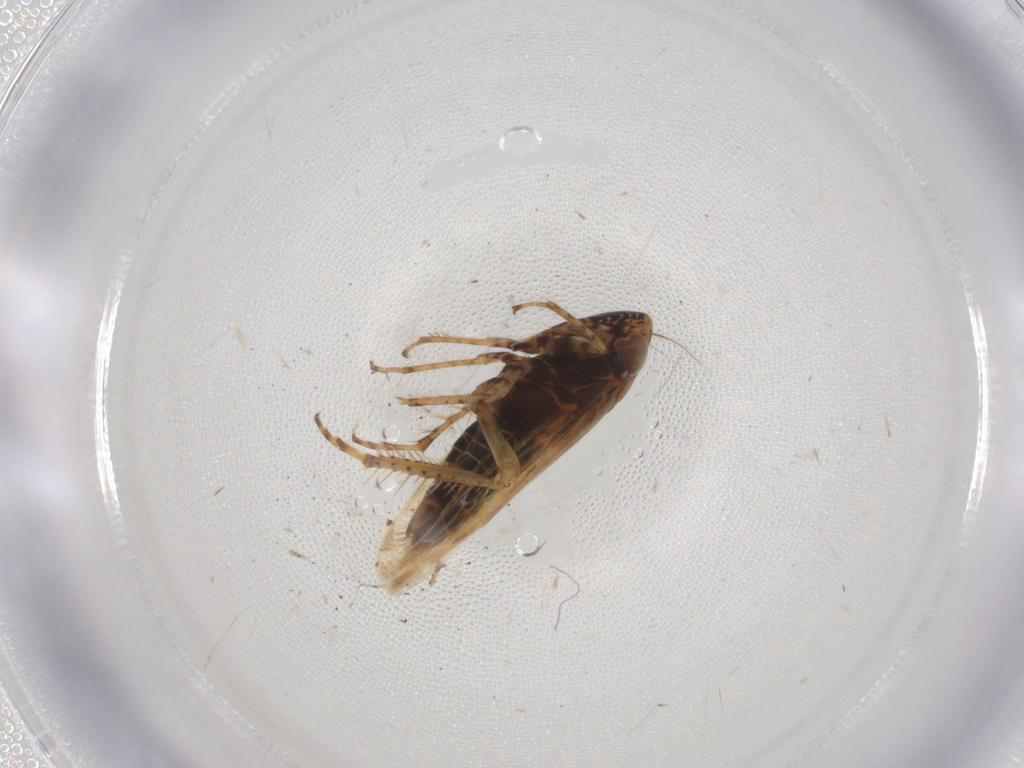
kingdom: Animalia
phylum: Arthropoda
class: Insecta
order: Hemiptera
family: Cicadellidae
